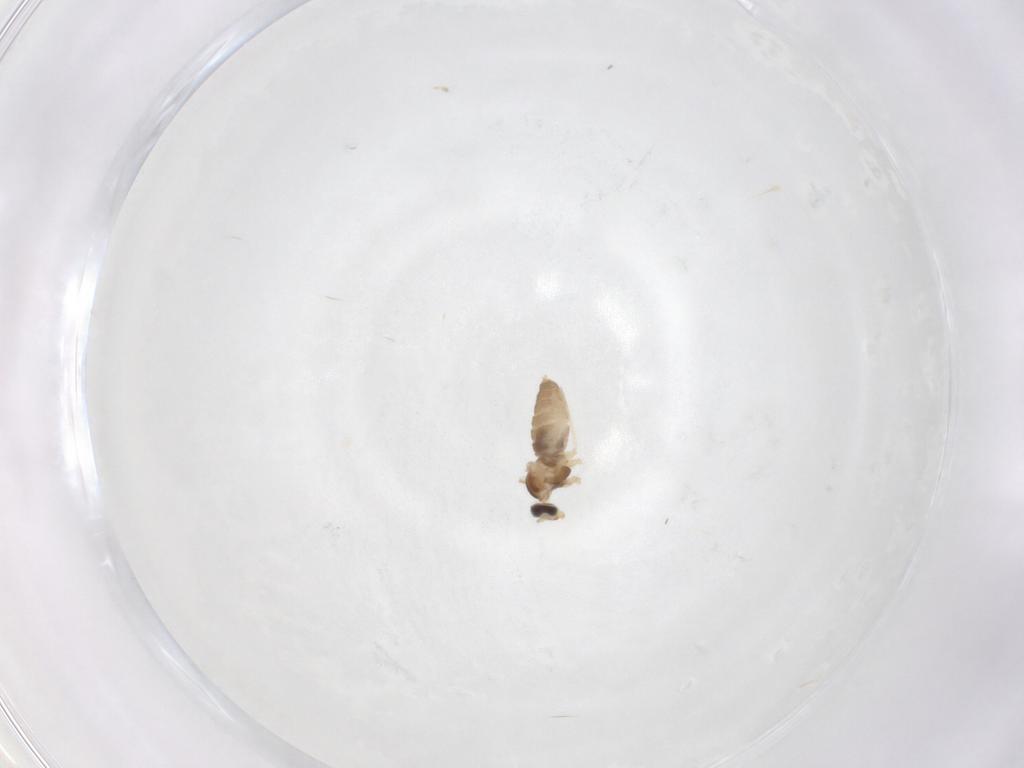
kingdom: Animalia
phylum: Arthropoda
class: Insecta
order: Diptera
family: Cecidomyiidae
